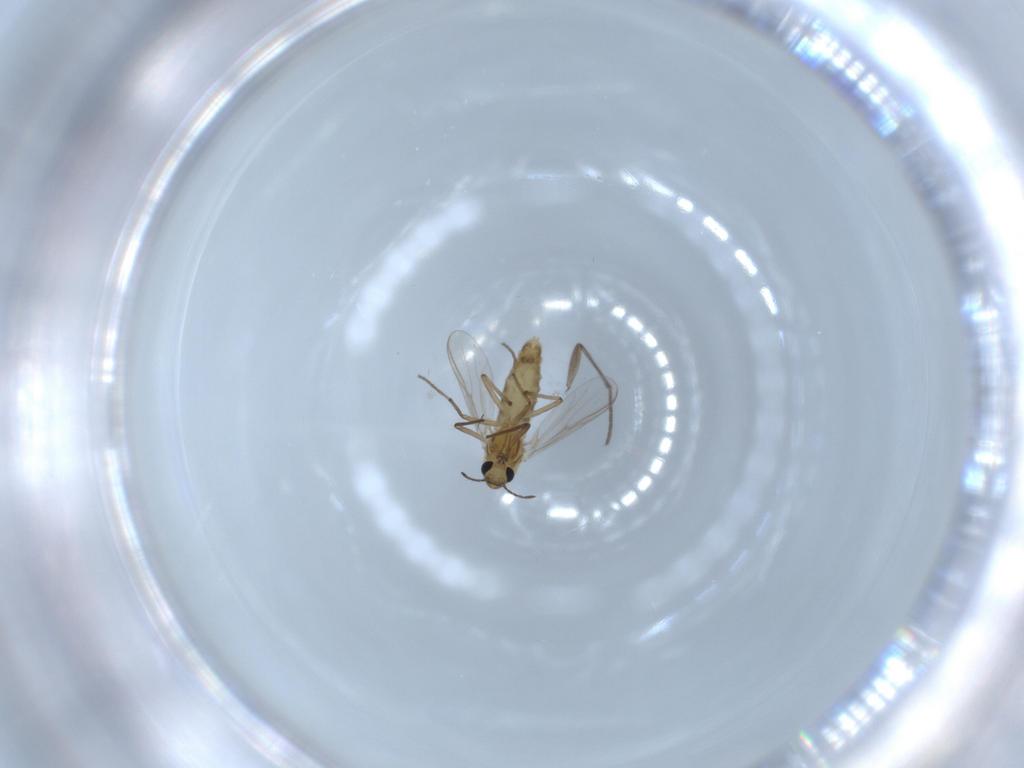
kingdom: Animalia
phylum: Arthropoda
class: Insecta
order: Diptera
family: Chironomidae
